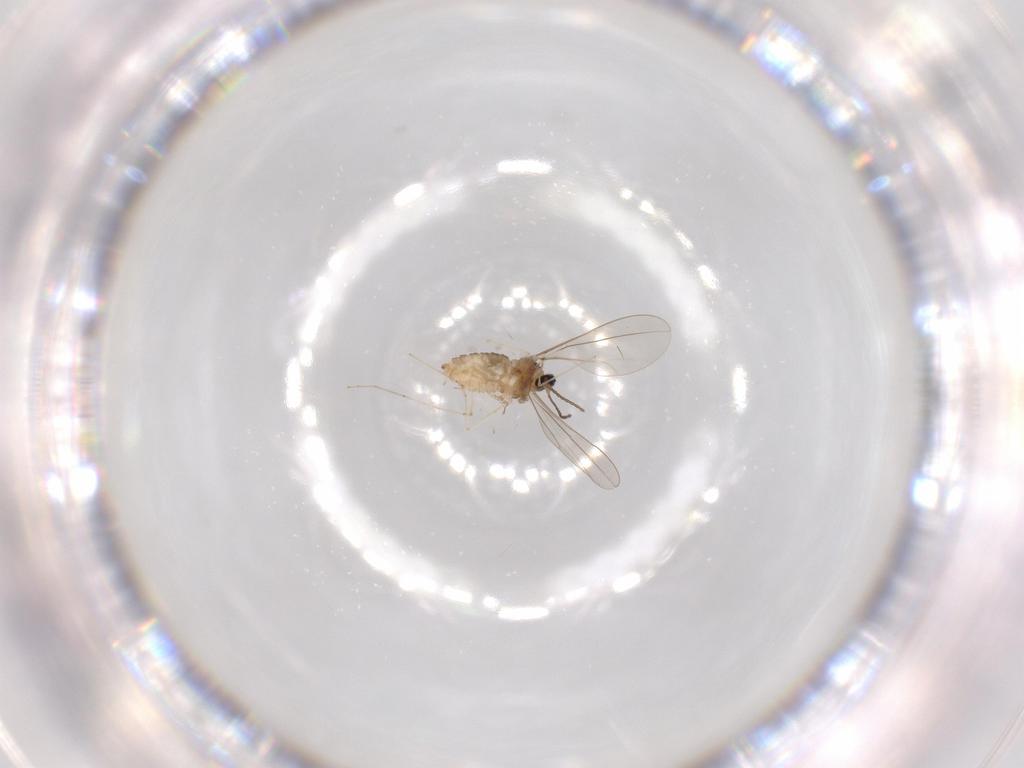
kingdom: Animalia
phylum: Arthropoda
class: Insecta
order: Diptera
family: Cecidomyiidae
